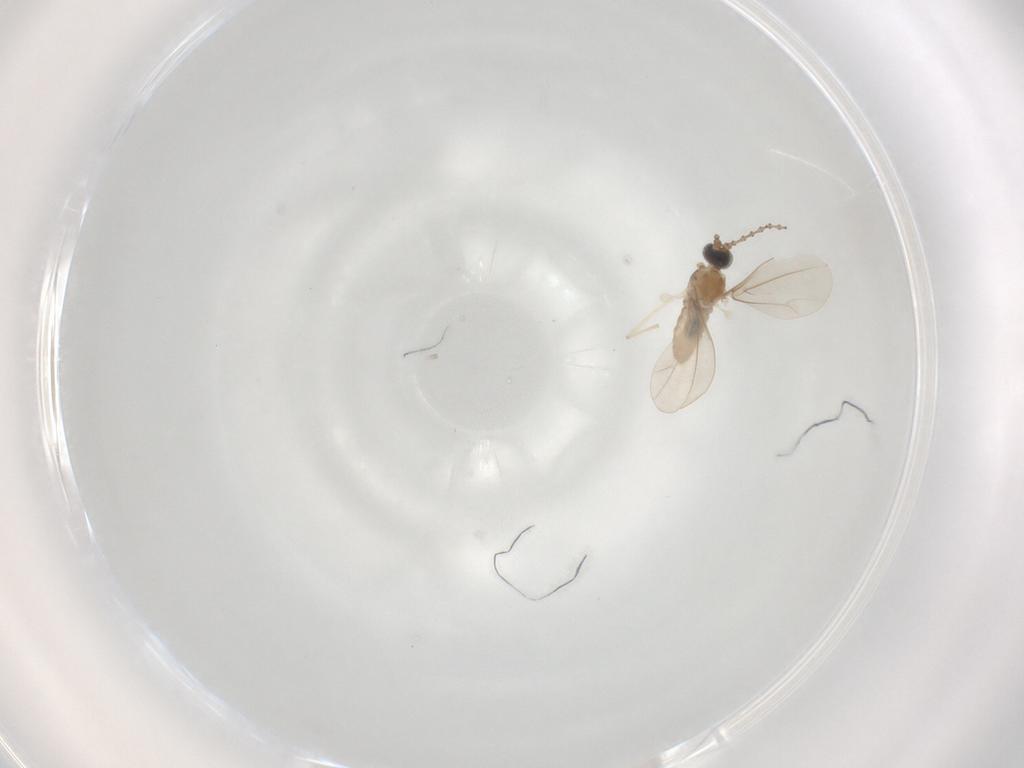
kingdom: Animalia
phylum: Arthropoda
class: Insecta
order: Diptera
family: Cecidomyiidae
